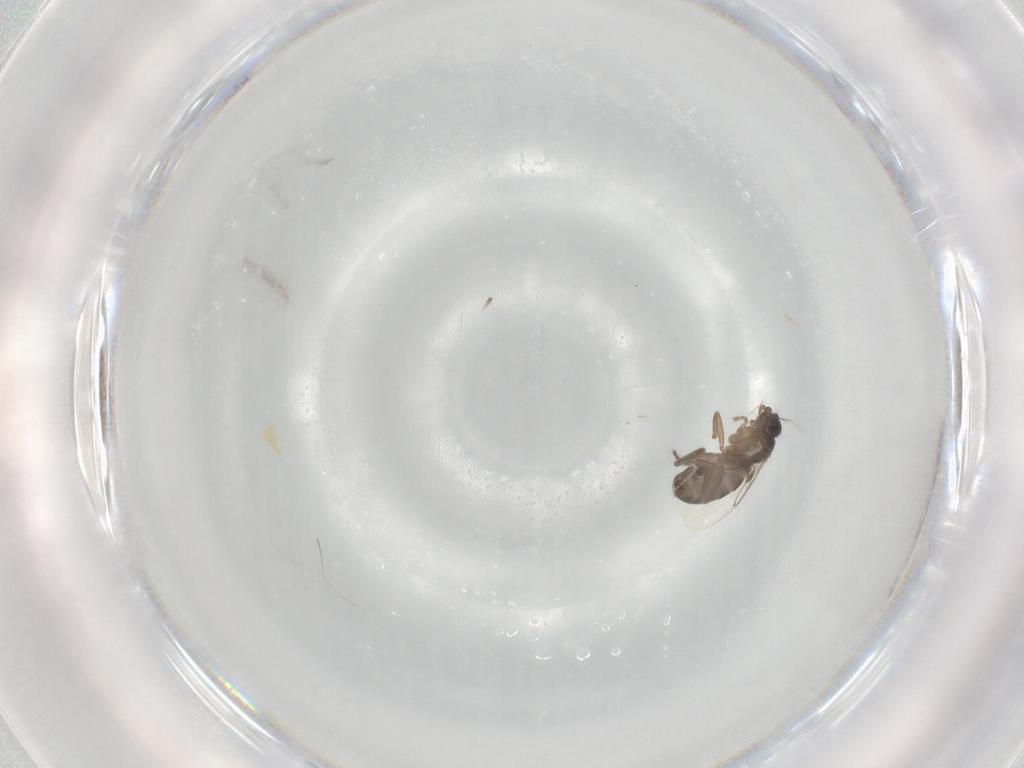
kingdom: Animalia
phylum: Arthropoda
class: Insecta
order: Diptera
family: Phoridae
